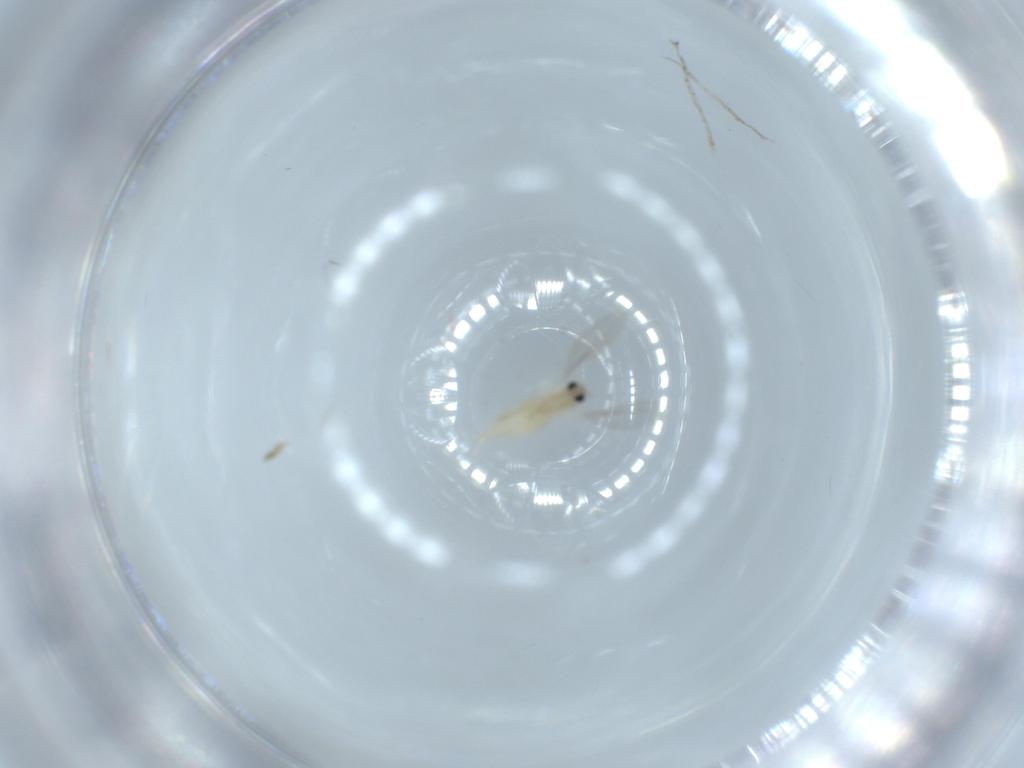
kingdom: Animalia
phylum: Arthropoda
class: Insecta
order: Diptera
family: Cecidomyiidae
